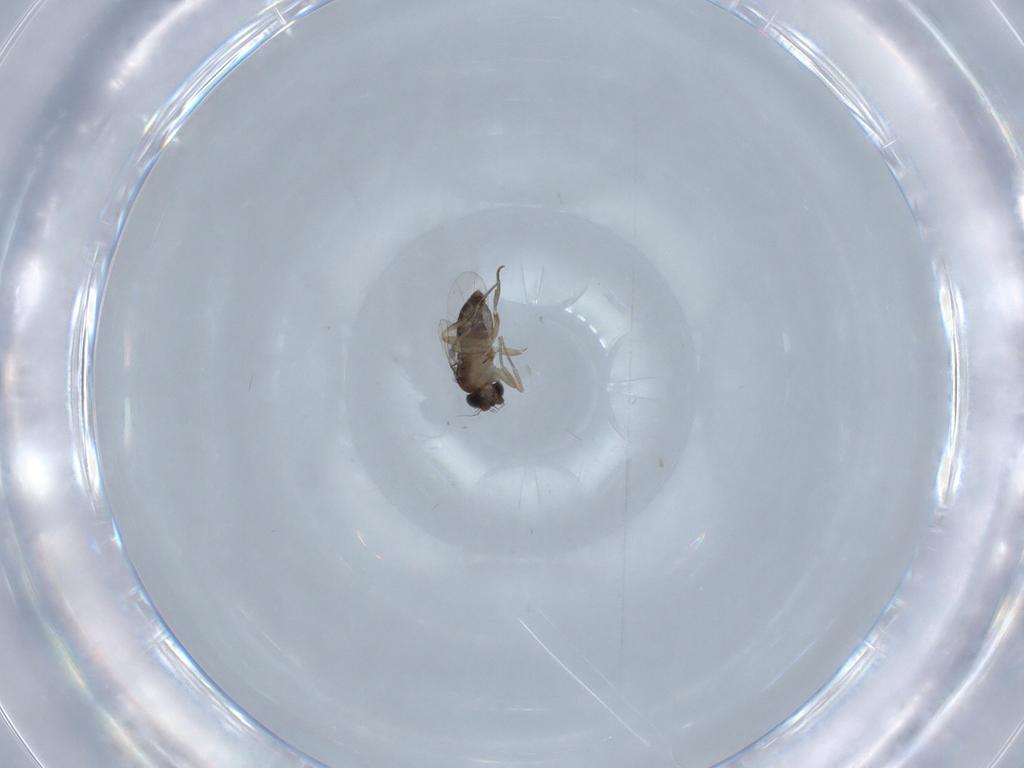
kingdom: Animalia
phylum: Arthropoda
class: Insecta
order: Diptera
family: Phoridae
